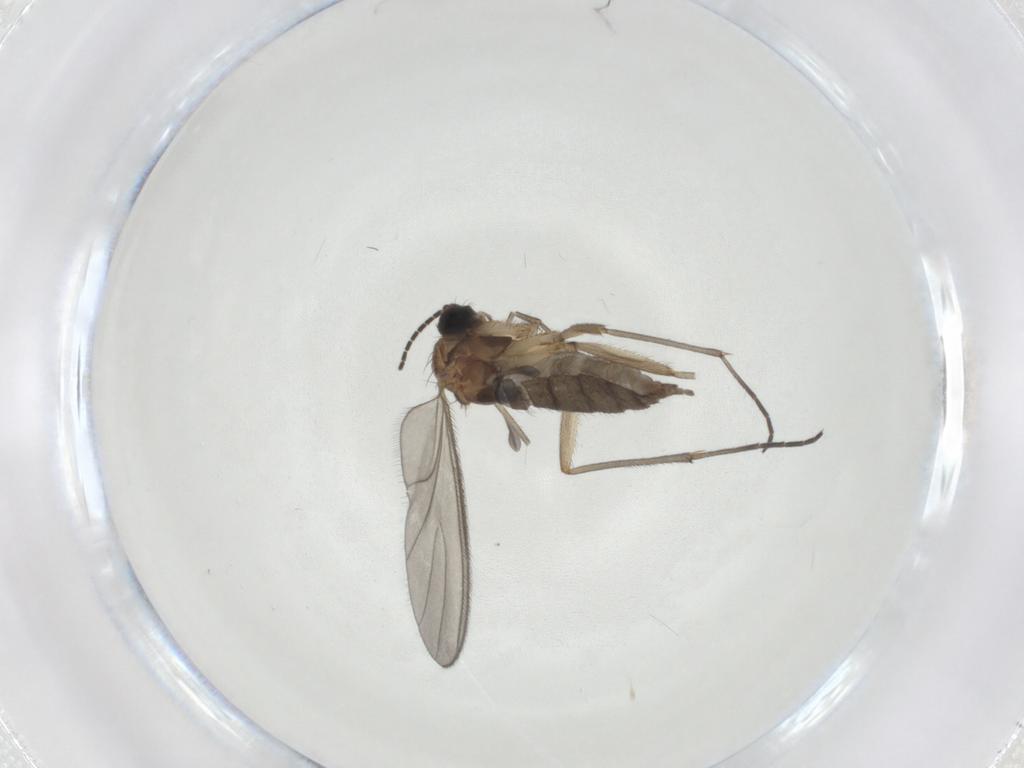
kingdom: Animalia
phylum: Arthropoda
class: Insecta
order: Diptera
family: Sciaridae
